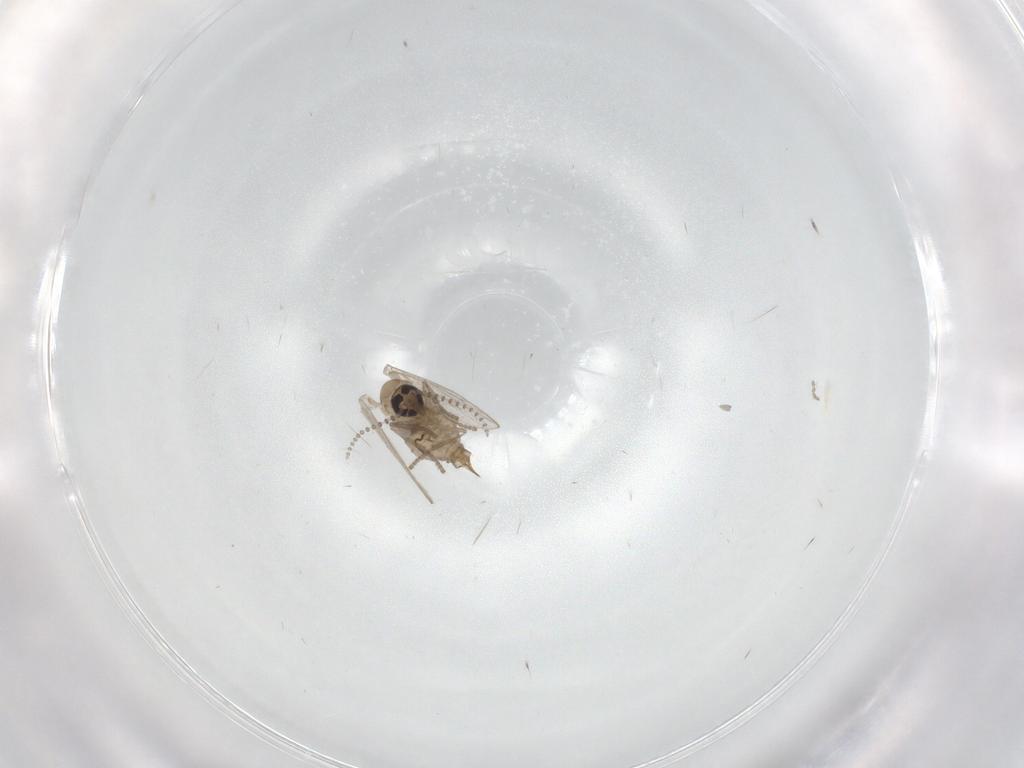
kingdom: Animalia
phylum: Arthropoda
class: Insecta
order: Diptera
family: Psychodidae
